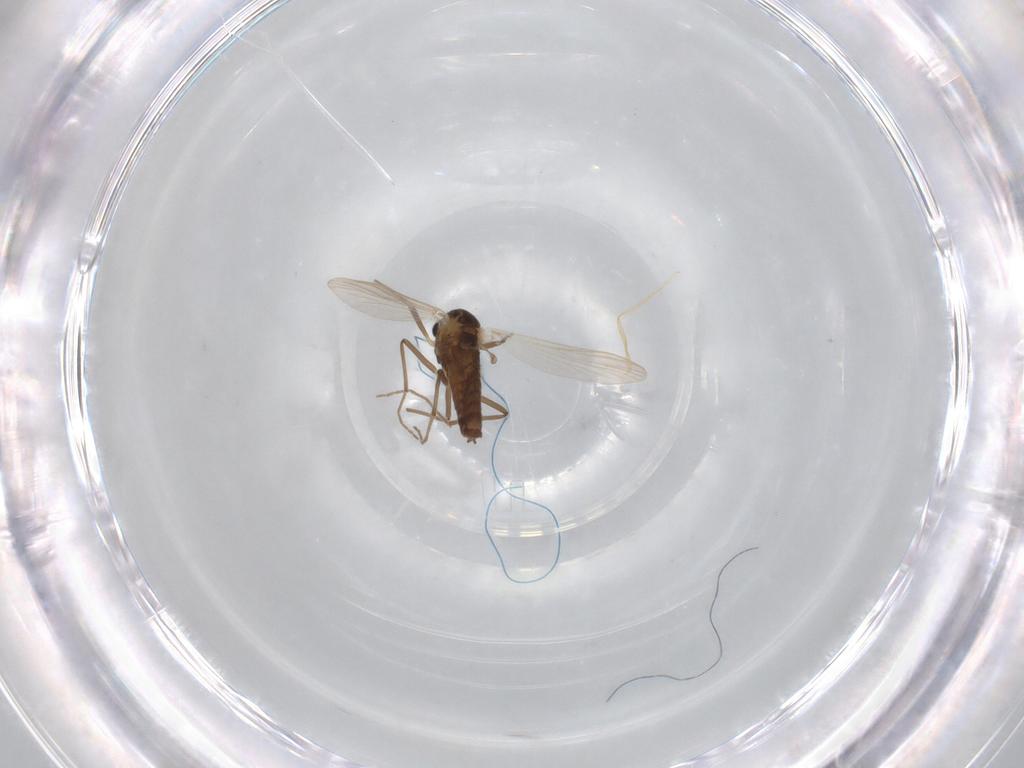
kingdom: Animalia
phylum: Arthropoda
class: Insecta
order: Diptera
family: Chironomidae
